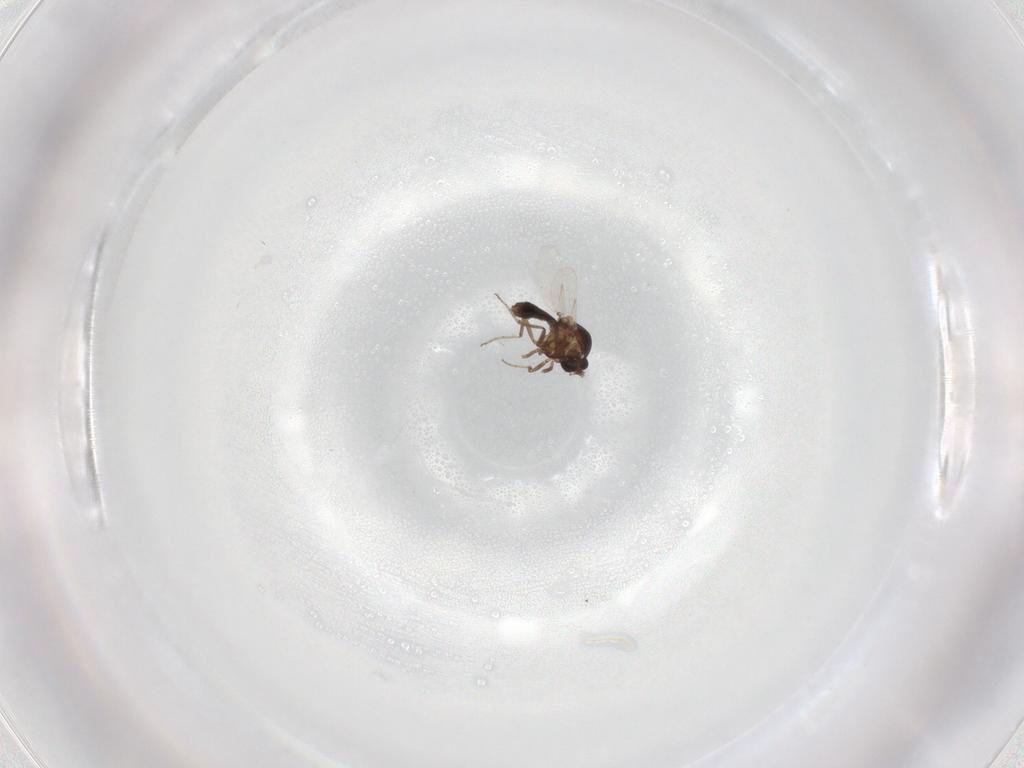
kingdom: Animalia
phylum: Arthropoda
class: Insecta
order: Diptera
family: Ceratopogonidae
